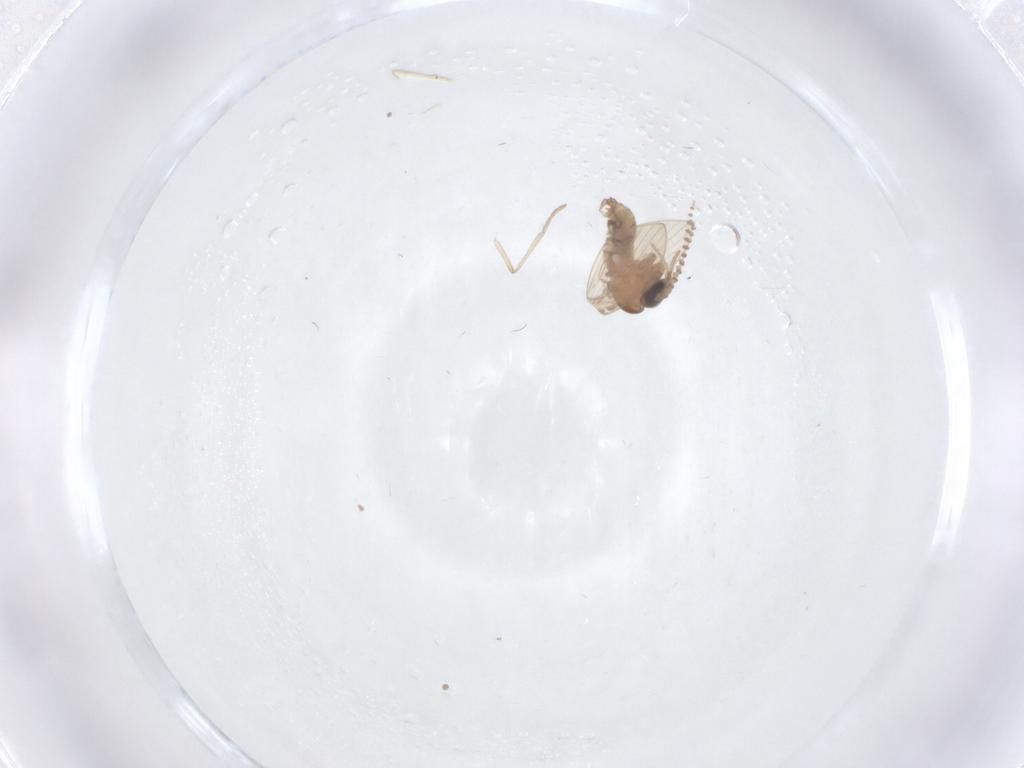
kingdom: Animalia
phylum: Arthropoda
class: Insecta
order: Diptera
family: Psychodidae
